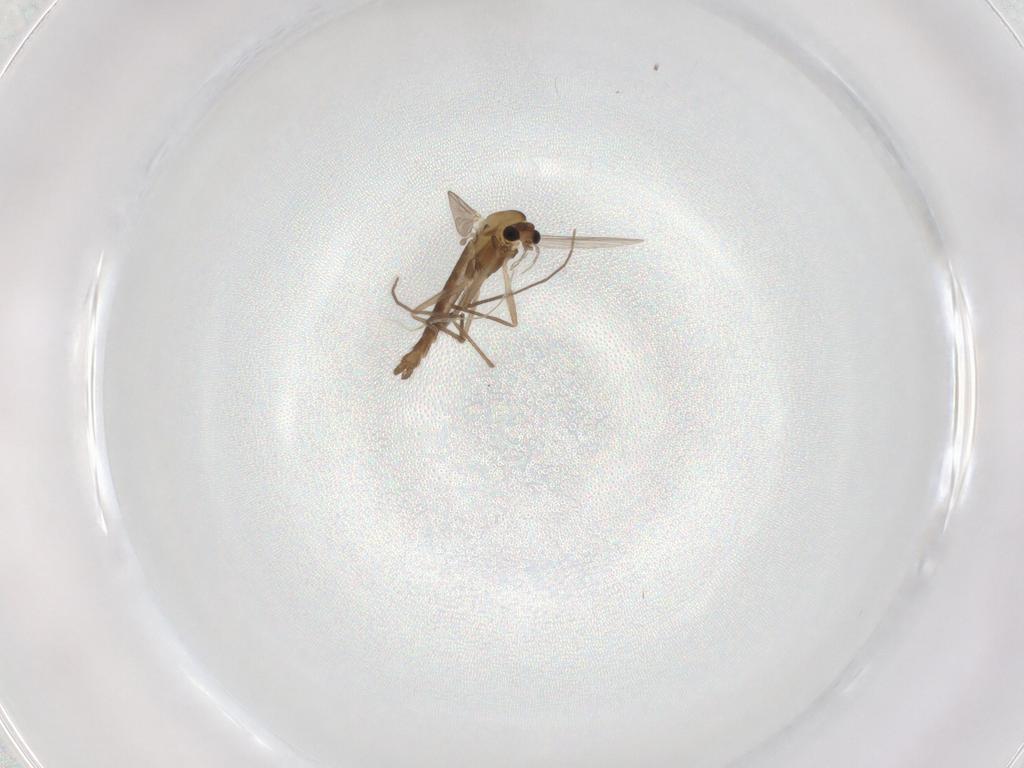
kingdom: Animalia
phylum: Arthropoda
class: Insecta
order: Diptera
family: Chironomidae
